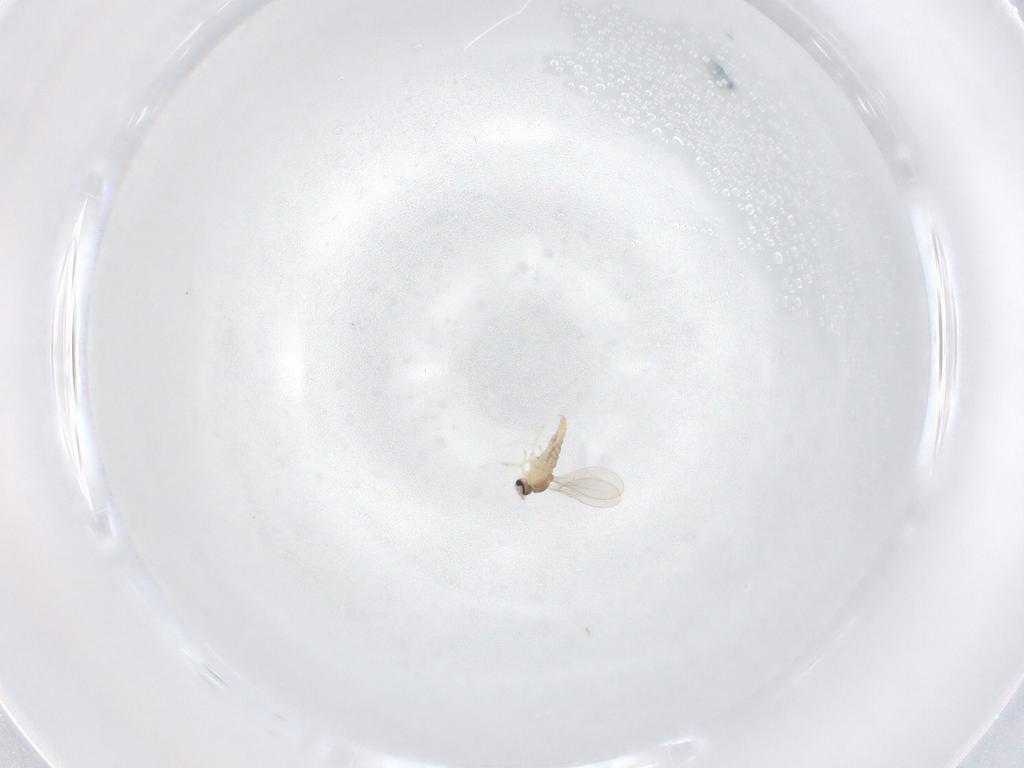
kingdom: Animalia
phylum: Arthropoda
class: Insecta
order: Diptera
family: Cecidomyiidae
